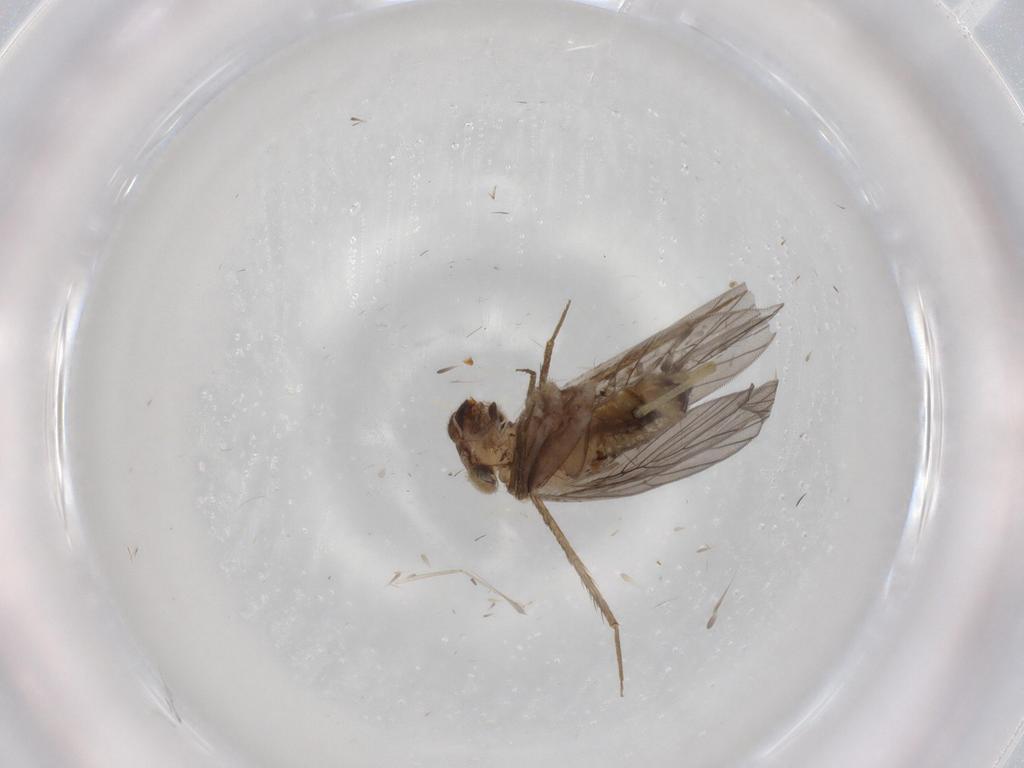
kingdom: Animalia
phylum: Arthropoda
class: Insecta
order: Psocodea
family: Lepidopsocidae
